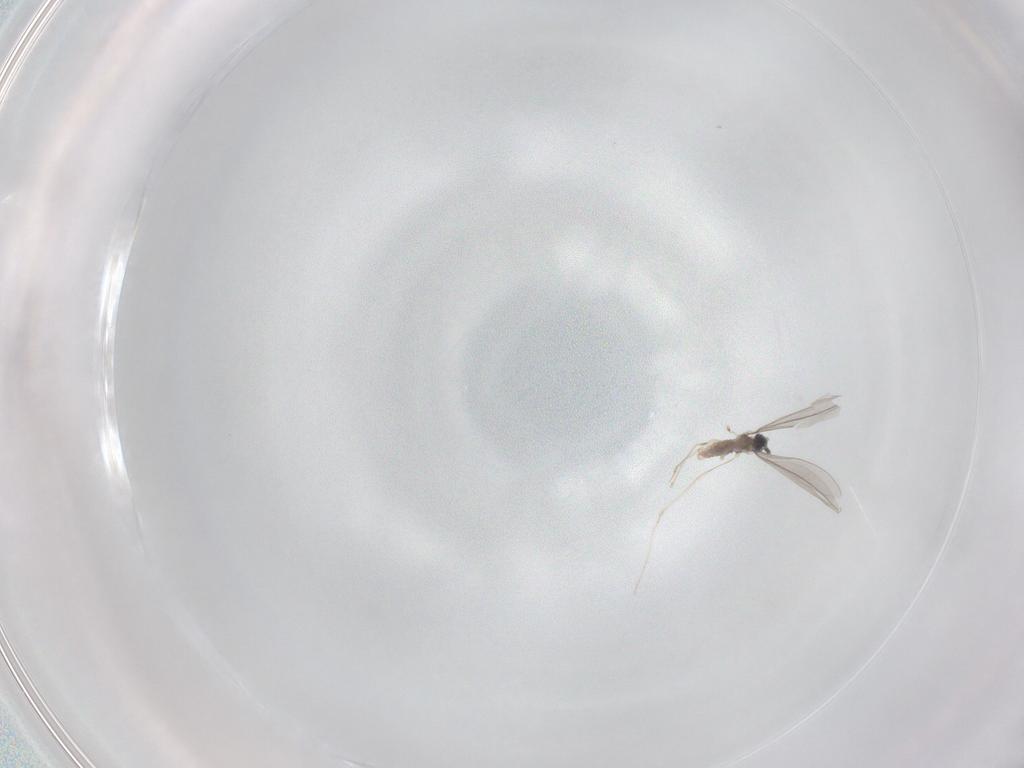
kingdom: Animalia
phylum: Arthropoda
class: Insecta
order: Diptera
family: Cecidomyiidae
